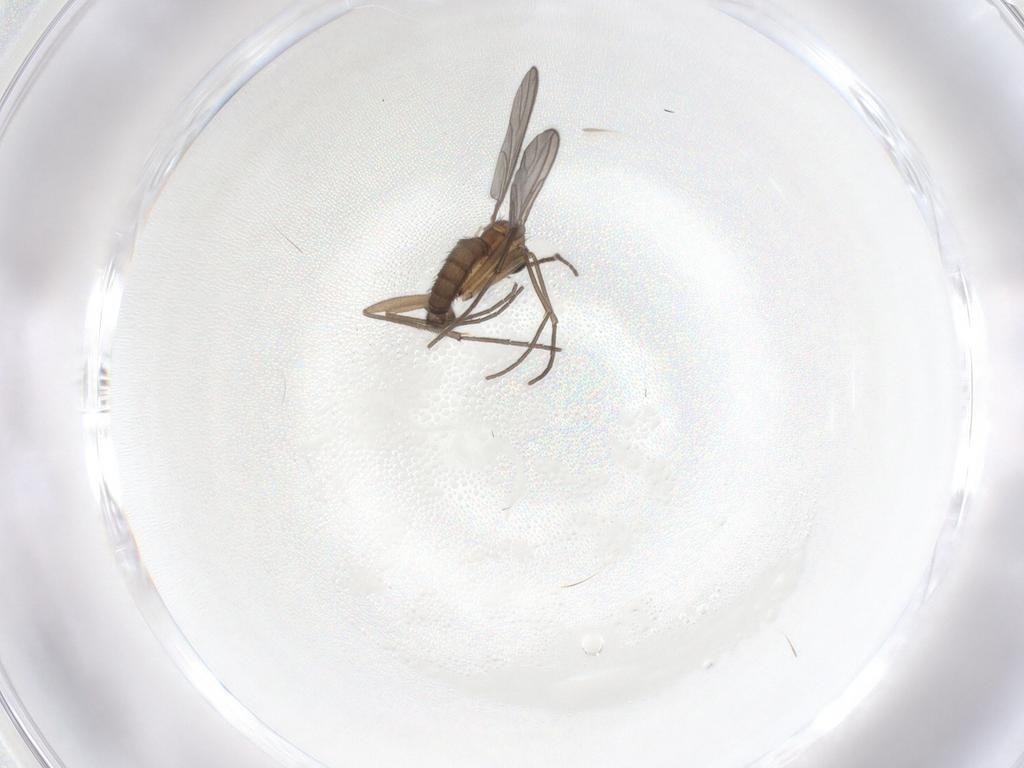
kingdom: Animalia
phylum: Arthropoda
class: Insecta
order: Diptera
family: Sciaridae
